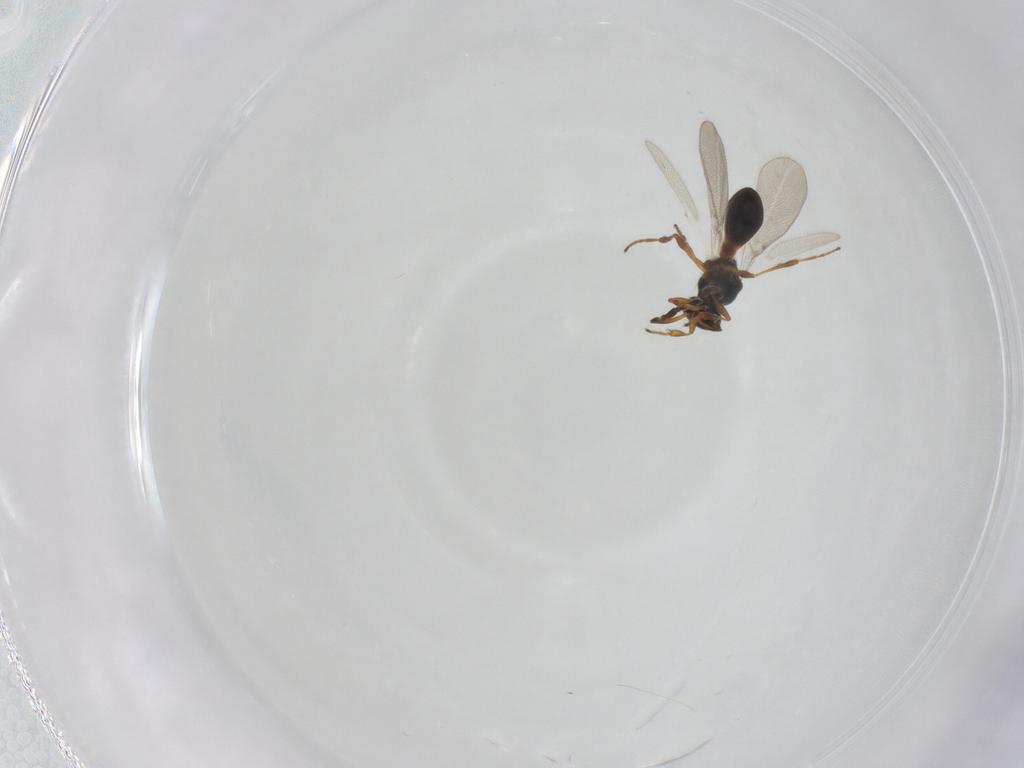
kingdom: Animalia
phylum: Arthropoda
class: Insecta
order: Hymenoptera
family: Platygastridae
